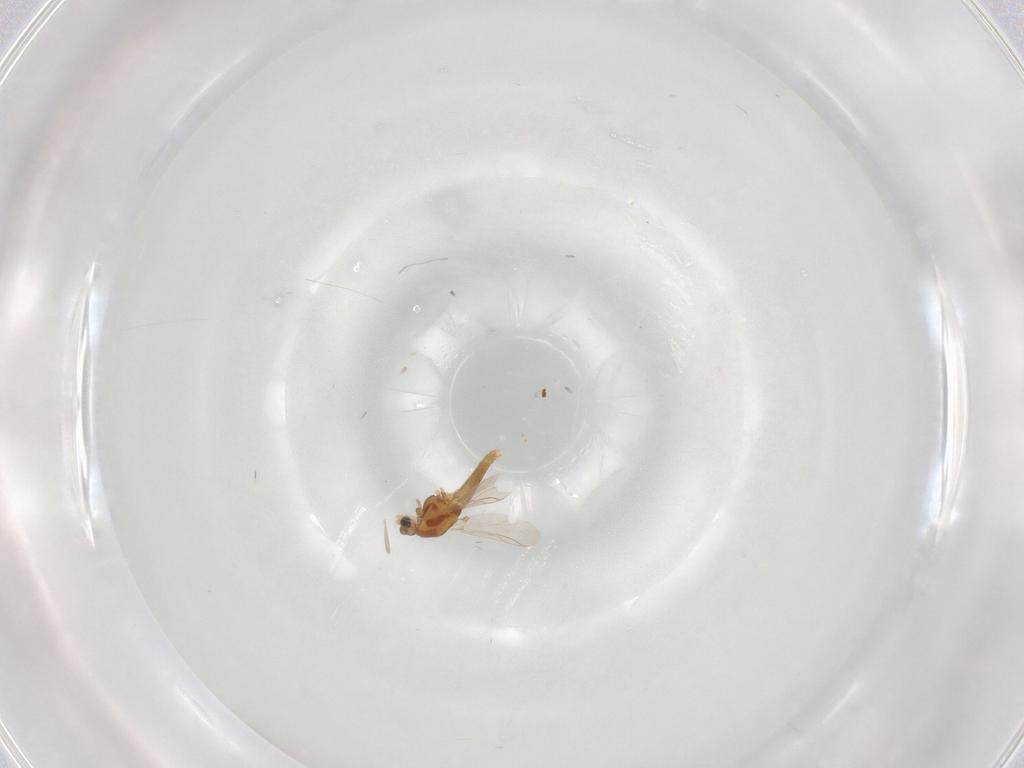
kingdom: Animalia
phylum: Arthropoda
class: Insecta
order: Diptera
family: Chironomidae
